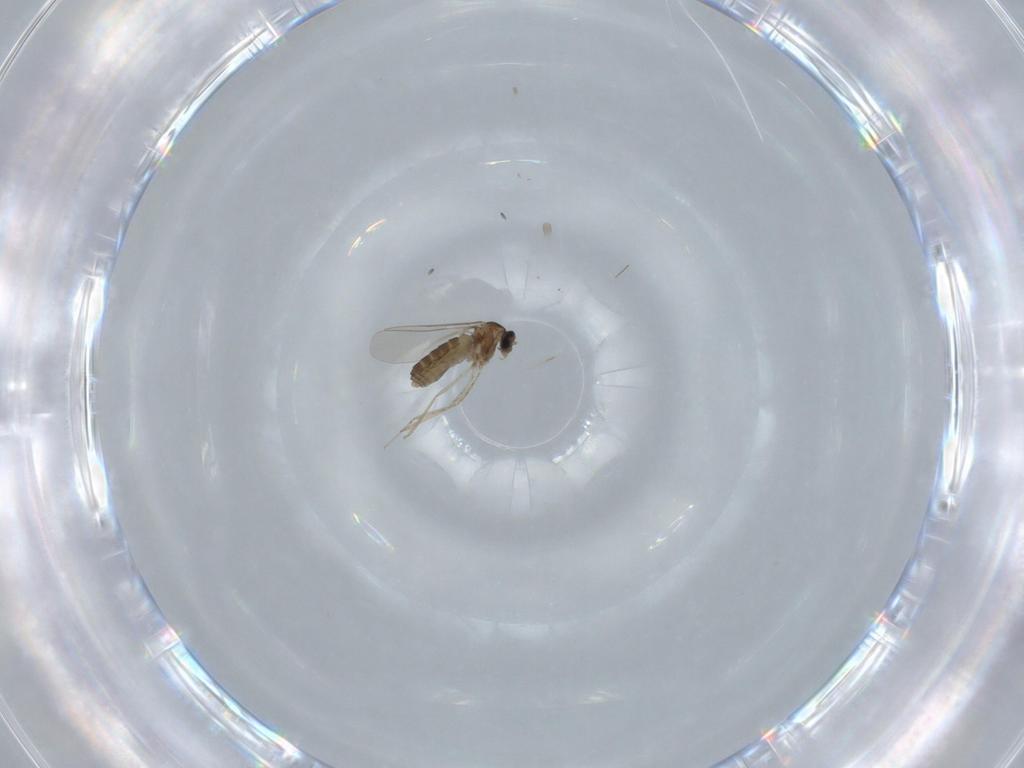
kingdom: Animalia
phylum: Arthropoda
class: Insecta
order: Diptera
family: Cecidomyiidae
